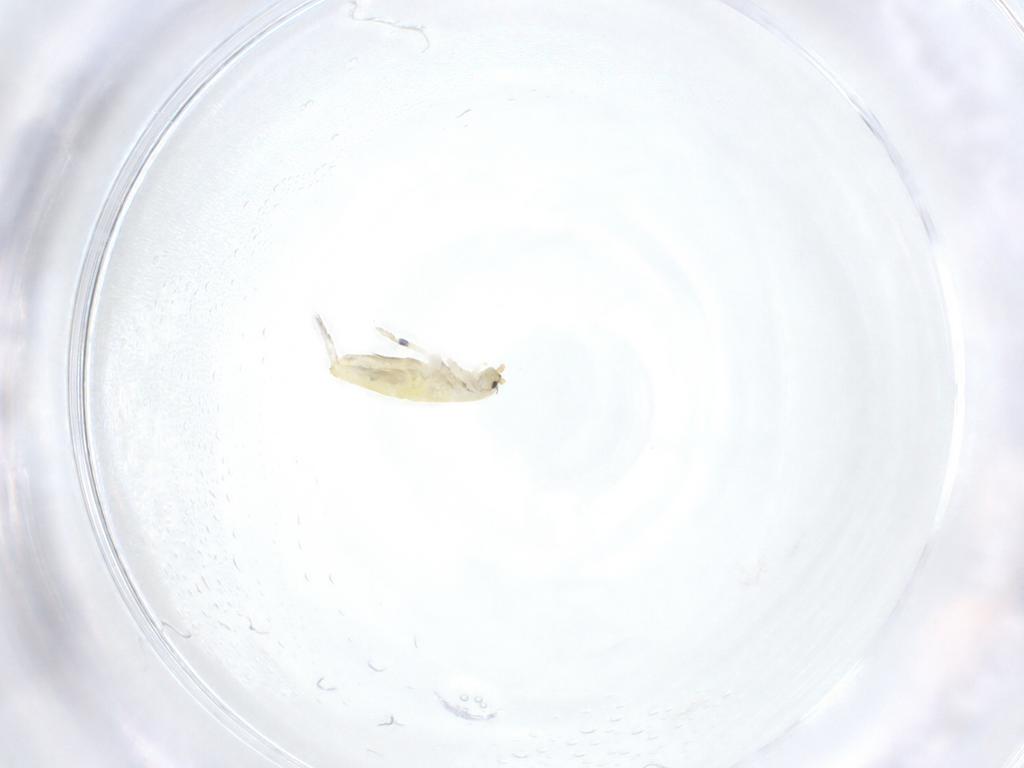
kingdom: Animalia
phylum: Arthropoda
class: Collembola
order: Entomobryomorpha
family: Entomobryidae
